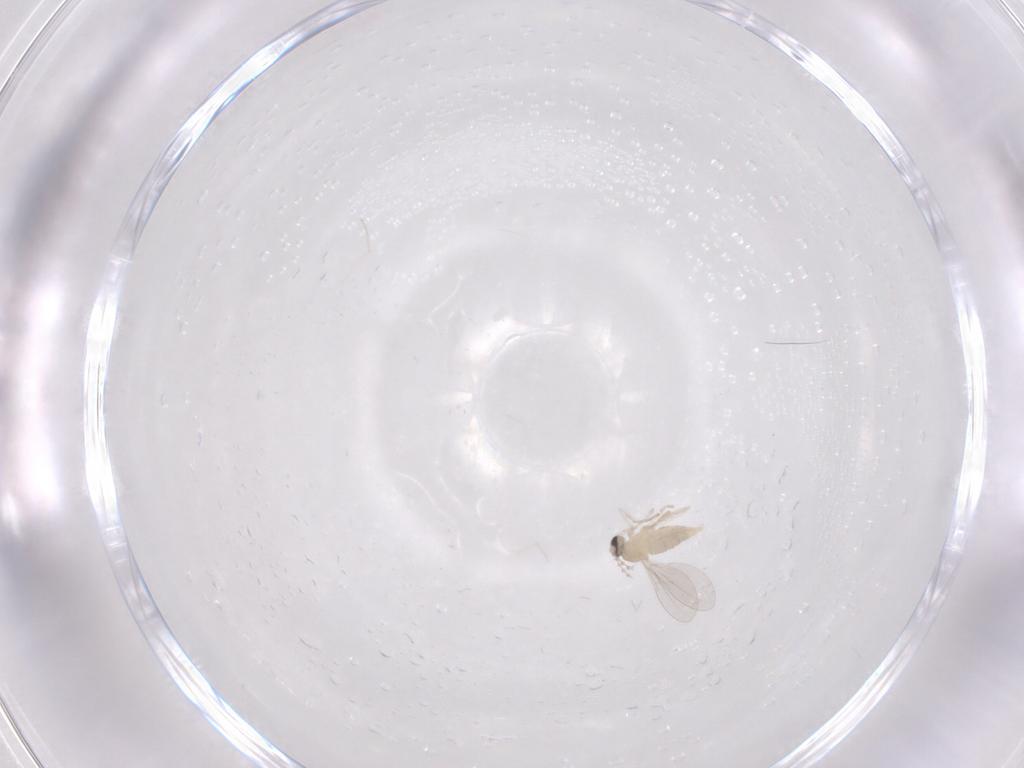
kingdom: Animalia
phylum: Arthropoda
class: Insecta
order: Diptera
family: Cecidomyiidae
